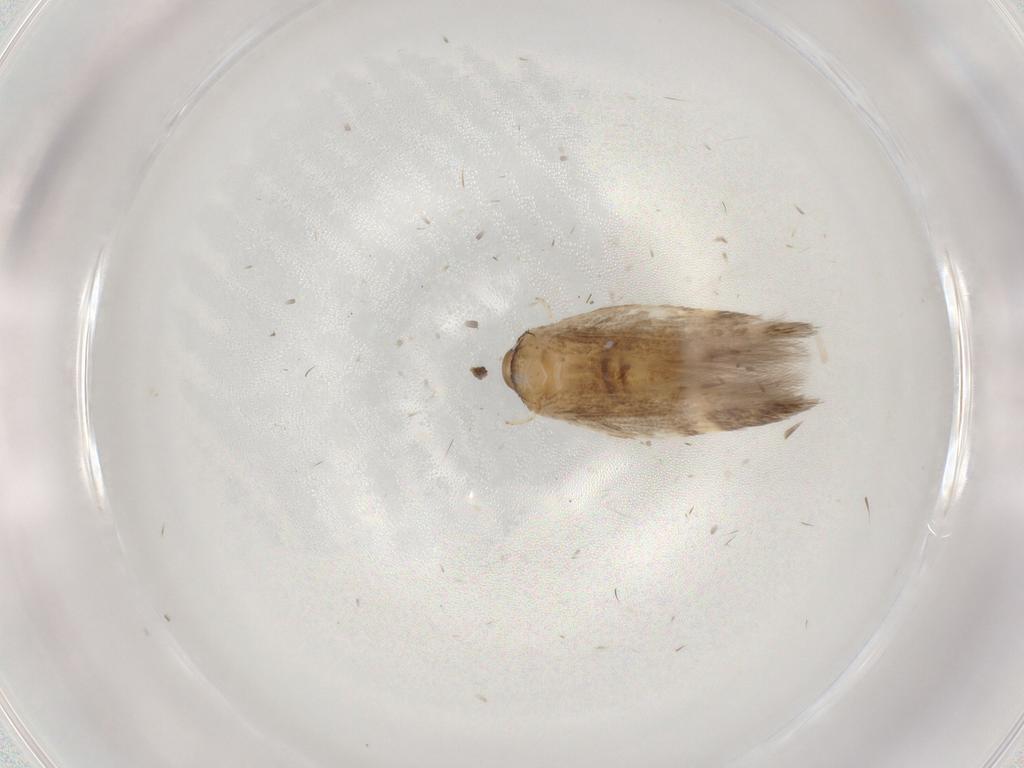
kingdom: Animalia
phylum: Arthropoda
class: Insecta
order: Lepidoptera
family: Cosmopterigidae
